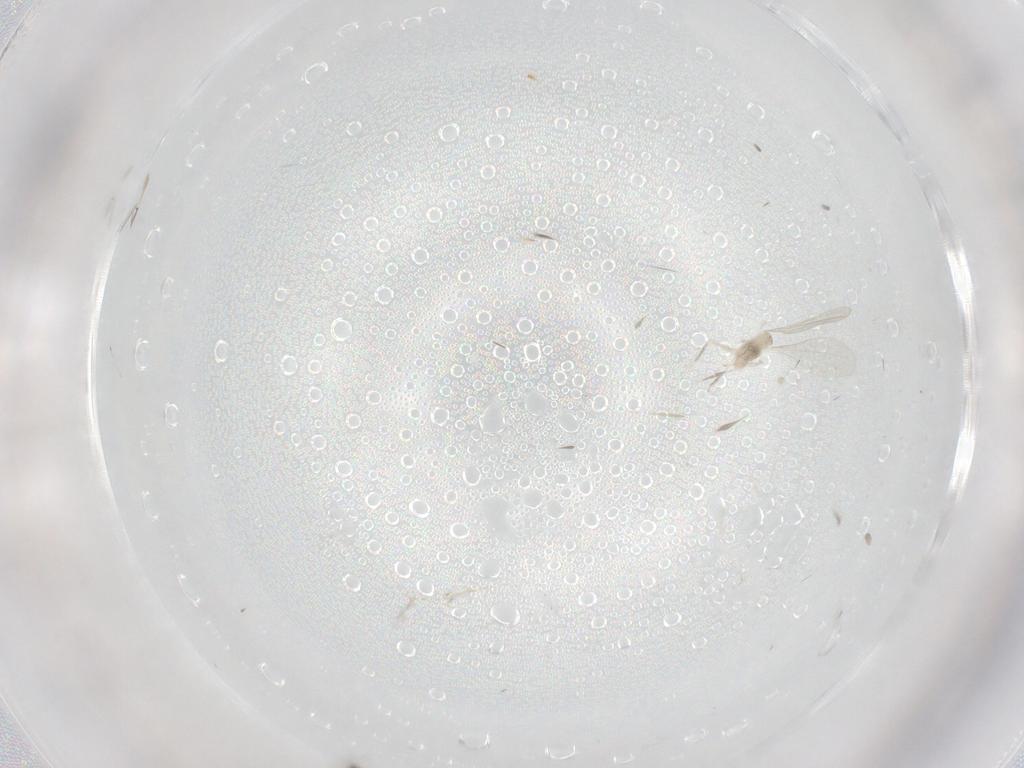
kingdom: Animalia
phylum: Arthropoda
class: Insecta
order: Diptera
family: Cecidomyiidae
